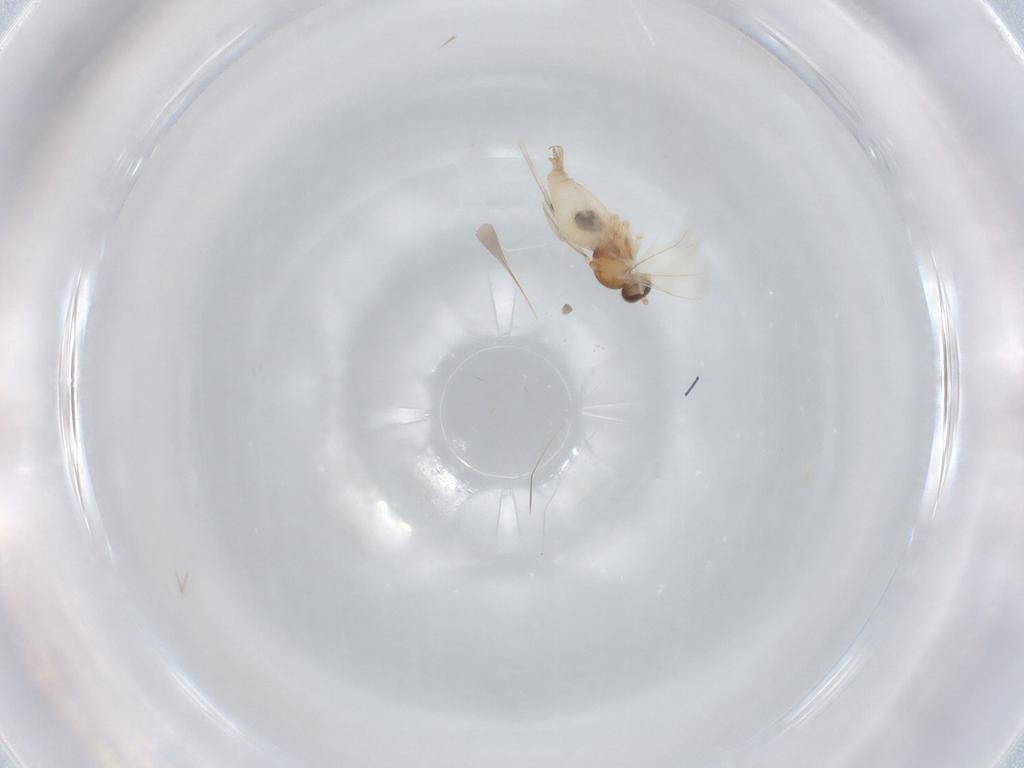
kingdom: Animalia
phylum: Arthropoda
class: Insecta
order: Diptera
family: Cecidomyiidae
